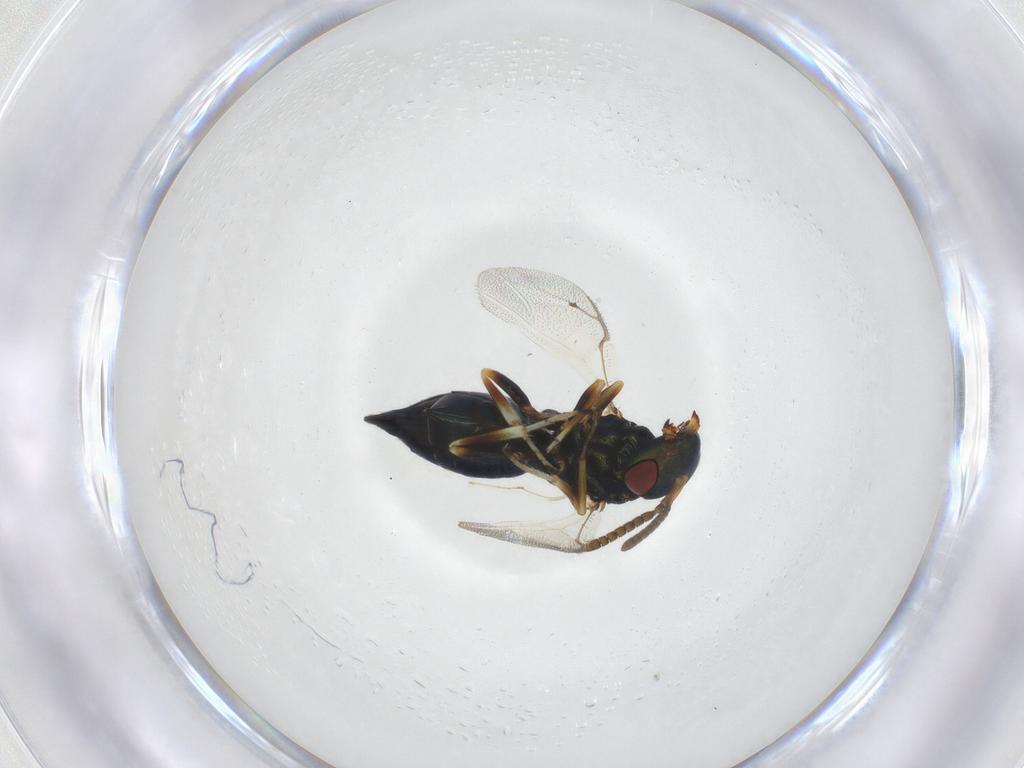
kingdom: Animalia
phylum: Arthropoda
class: Insecta
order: Hymenoptera
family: Pteromalidae
